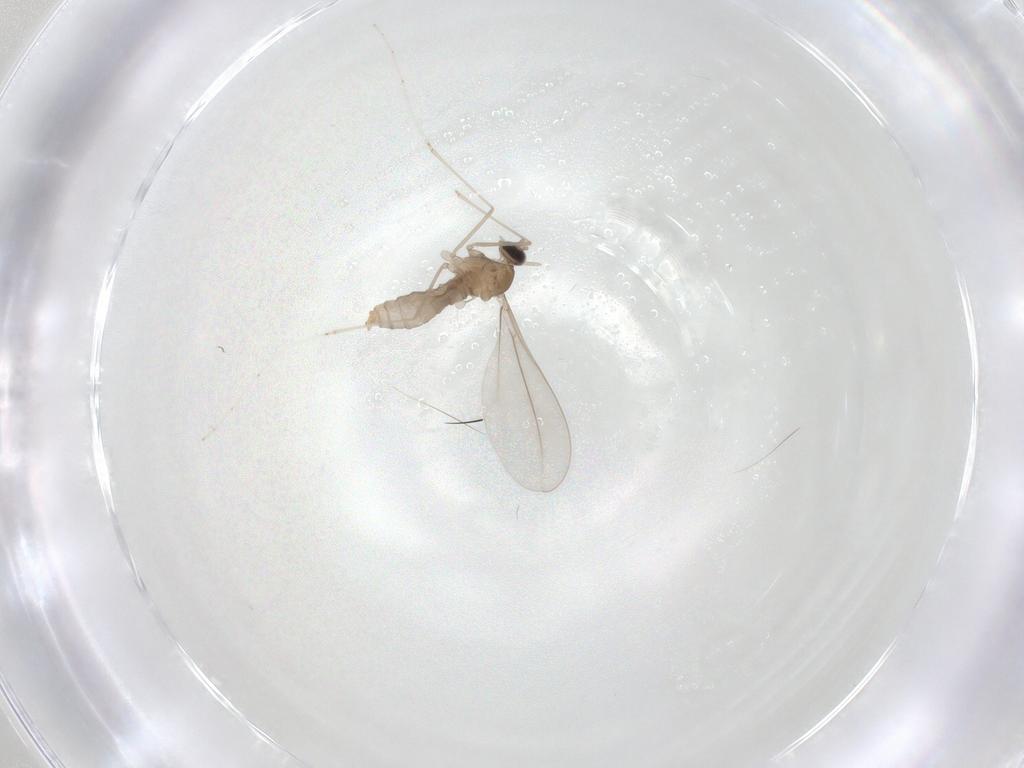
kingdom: Animalia
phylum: Arthropoda
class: Insecta
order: Diptera
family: Cecidomyiidae
